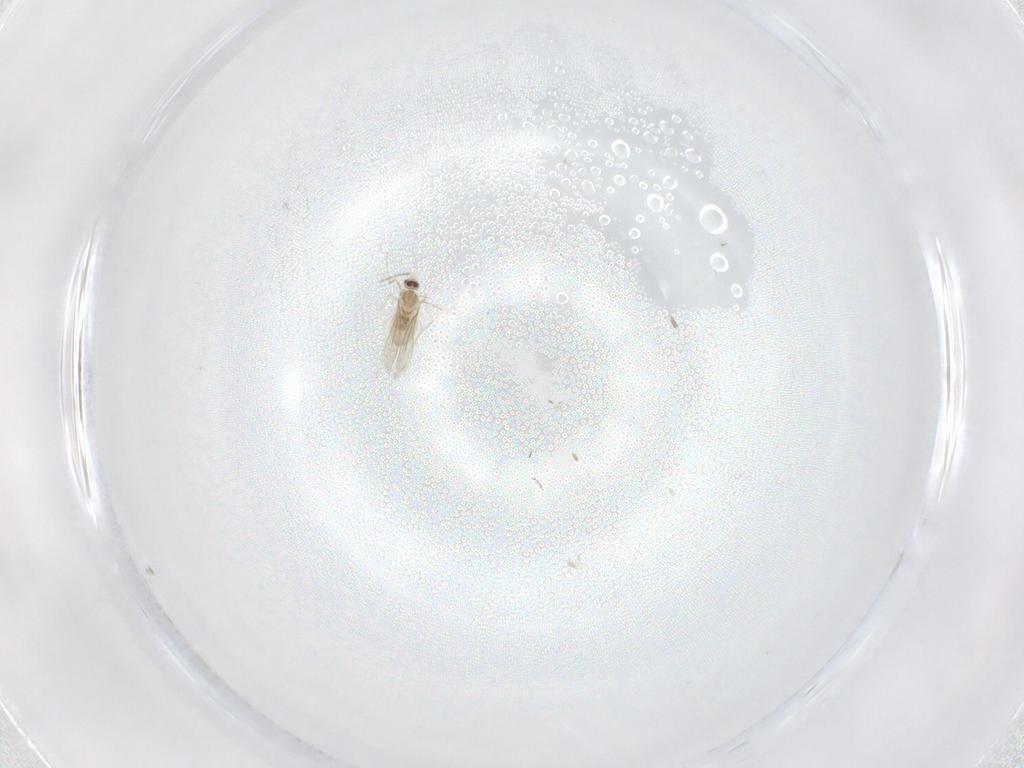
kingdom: Animalia
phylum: Arthropoda
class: Insecta
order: Diptera
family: Cecidomyiidae
